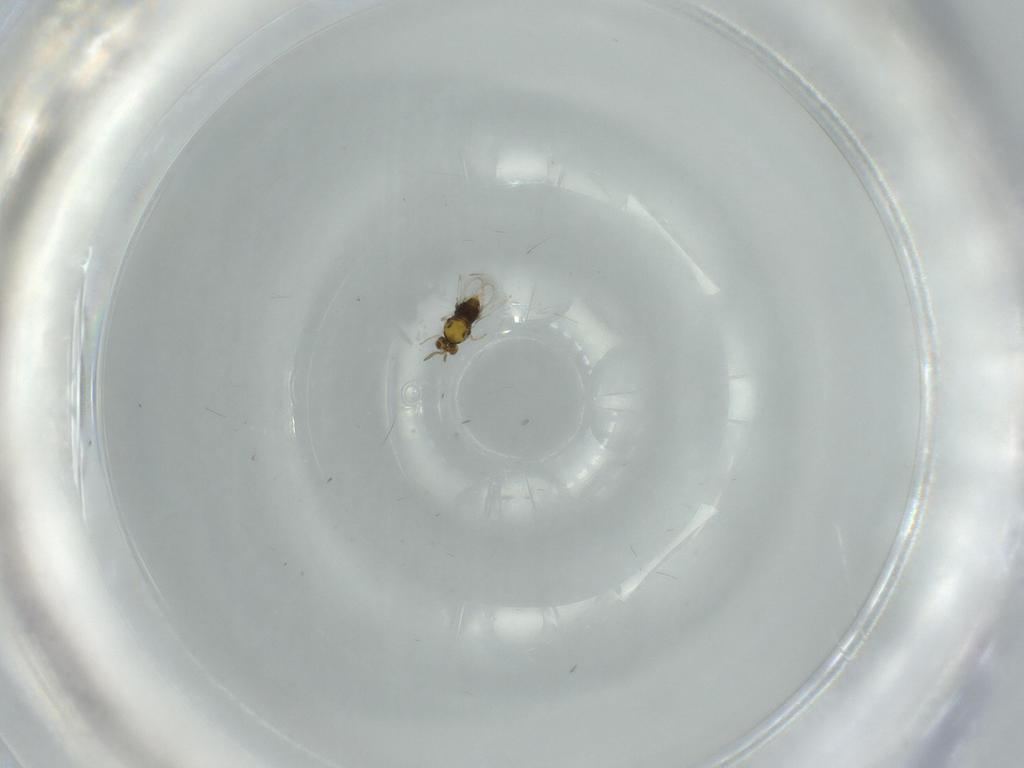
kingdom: Animalia
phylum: Arthropoda
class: Insecta
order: Hymenoptera
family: Aphelinidae
